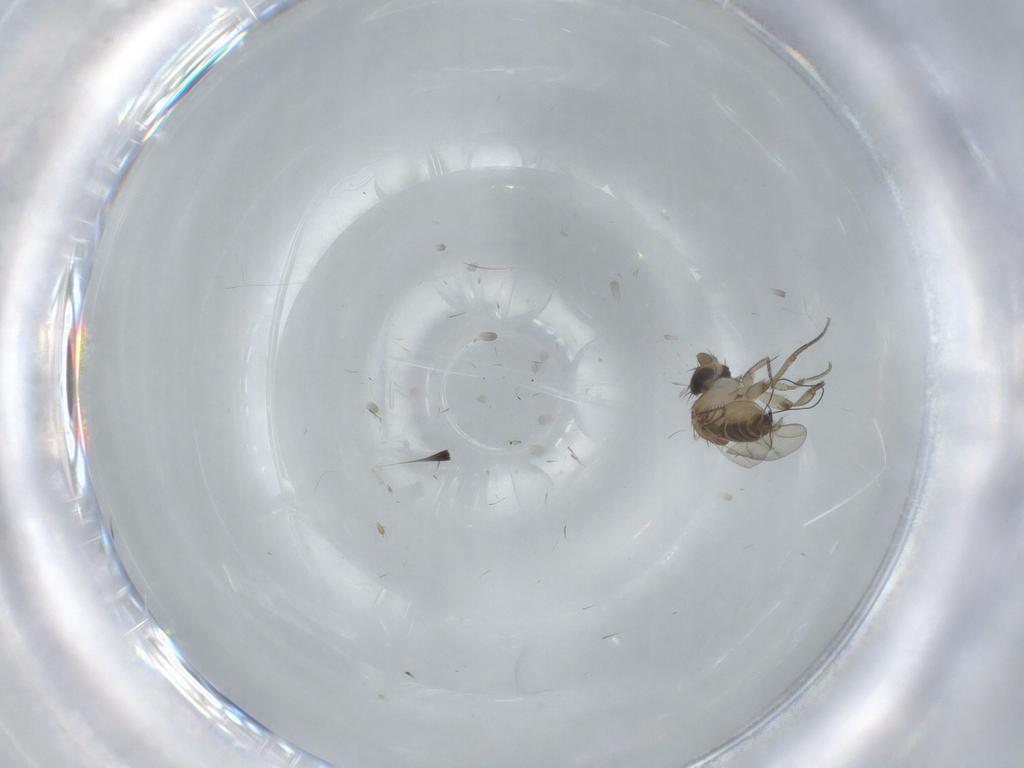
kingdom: Animalia
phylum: Arthropoda
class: Insecta
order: Diptera
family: Phoridae
